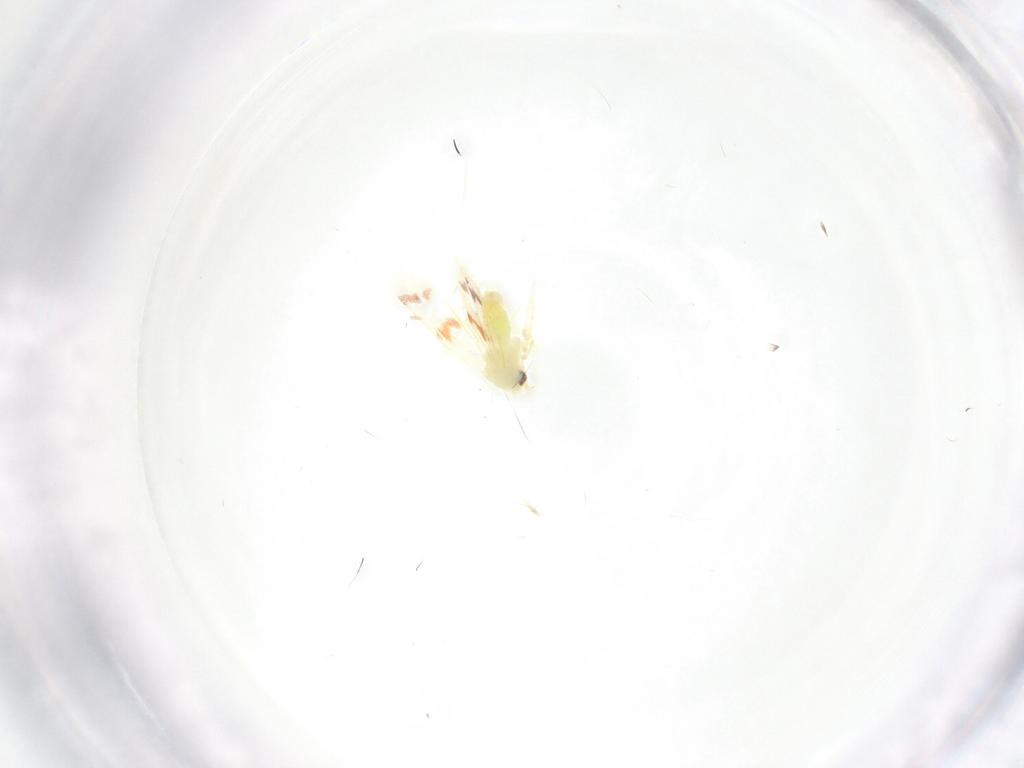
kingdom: Animalia
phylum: Arthropoda
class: Insecta
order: Hemiptera
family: Aleyrodidae
